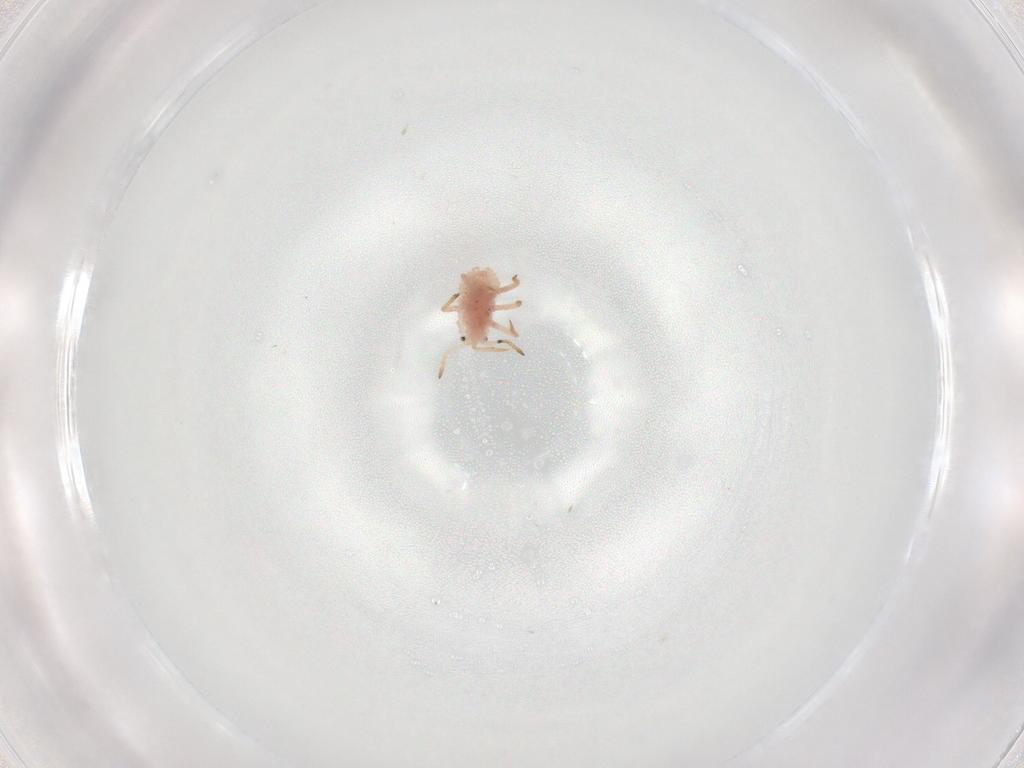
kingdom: Animalia
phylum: Arthropoda
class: Insecta
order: Hemiptera
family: Coccoidea_incertae_sedis
